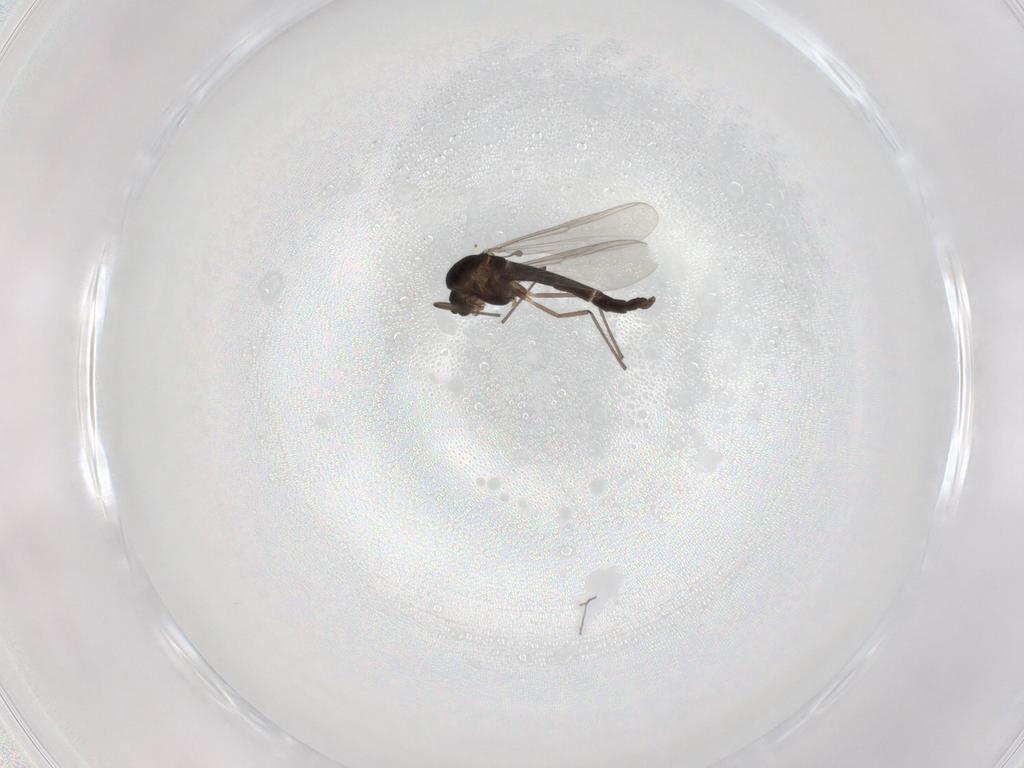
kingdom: Animalia
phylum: Arthropoda
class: Insecta
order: Diptera
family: Chironomidae
